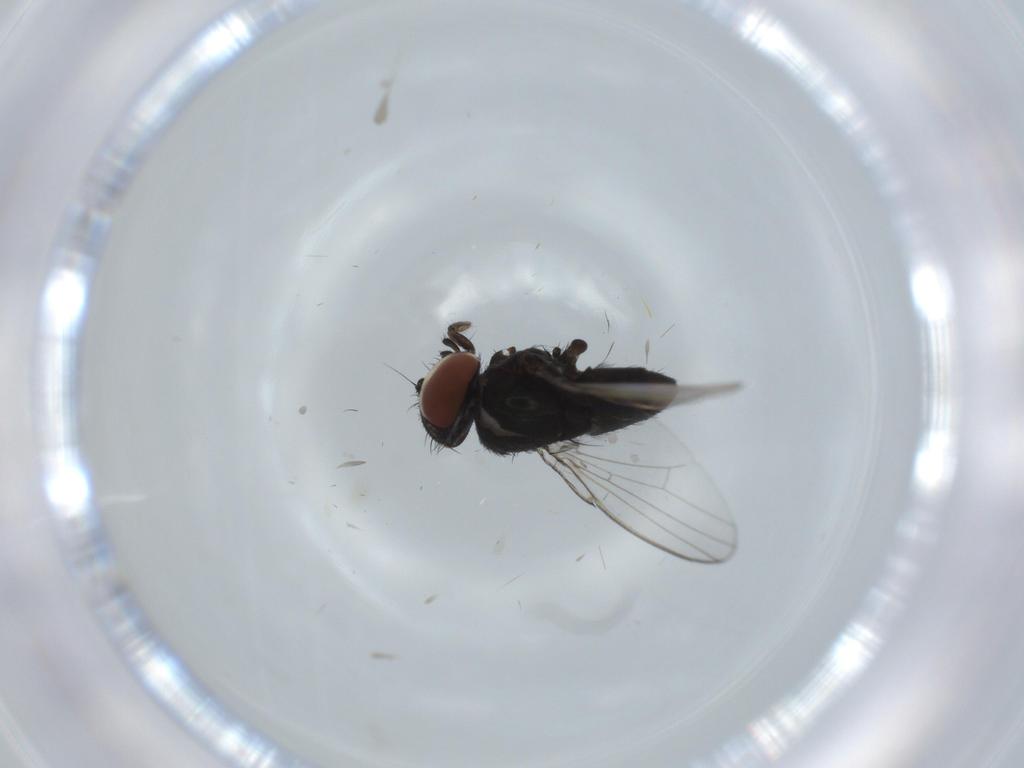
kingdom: Animalia
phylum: Arthropoda
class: Insecta
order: Diptera
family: Milichiidae
